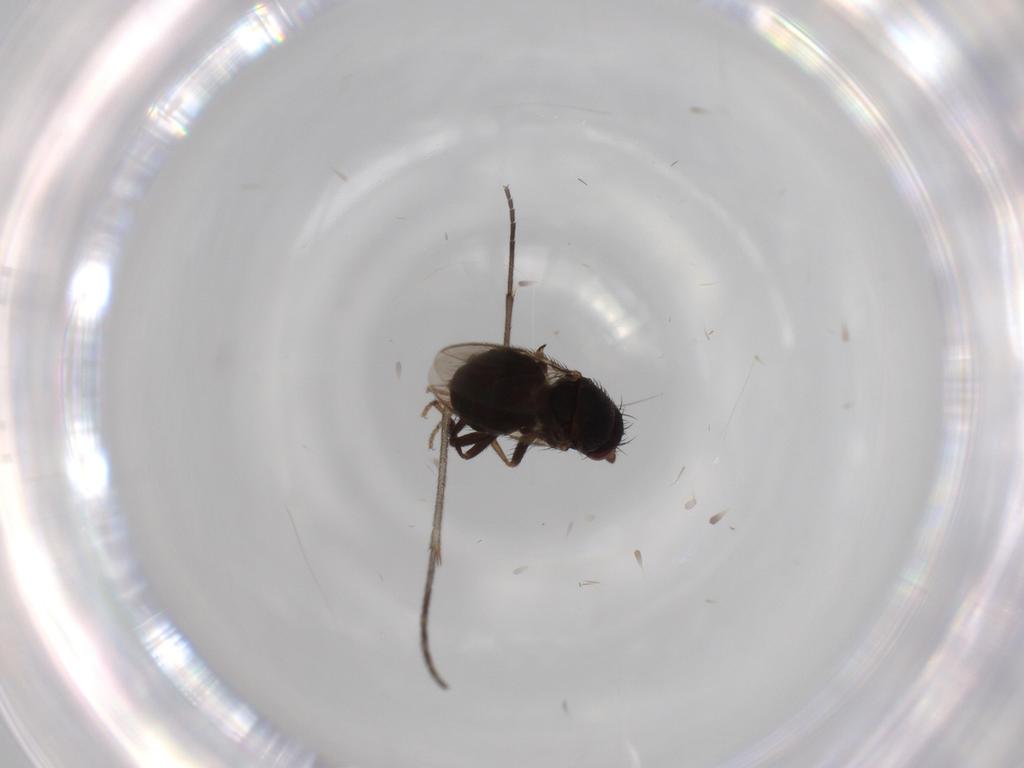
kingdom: Animalia
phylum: Arthropoda
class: Insecta
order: Diptera
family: Sphaeroceridae
